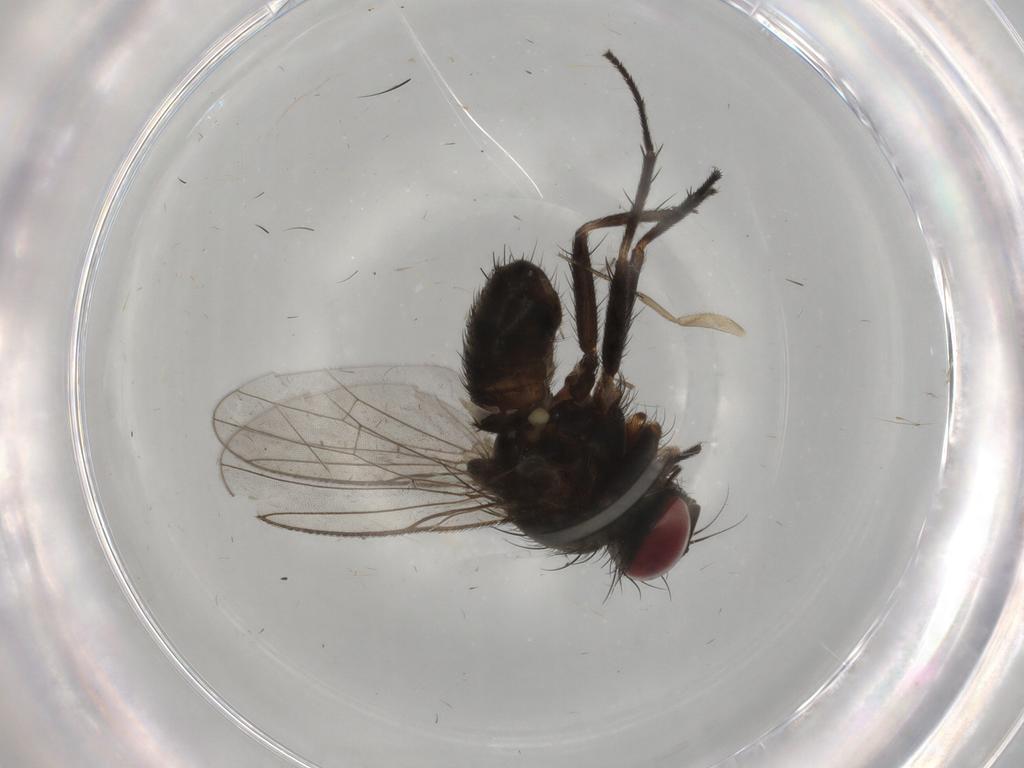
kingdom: Animalia
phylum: Arthropoda
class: Insecta
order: Diptera
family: Muscidae
